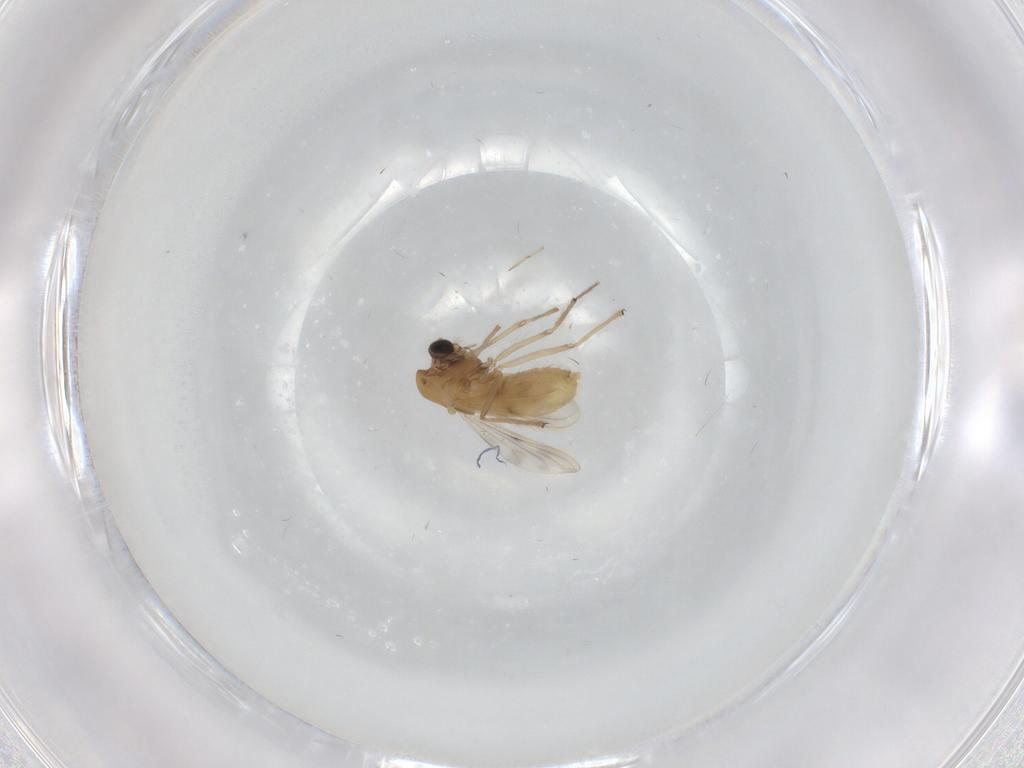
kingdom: Animalia
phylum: Arthropoda
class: Insecta
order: Diptera
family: Chironomidae
